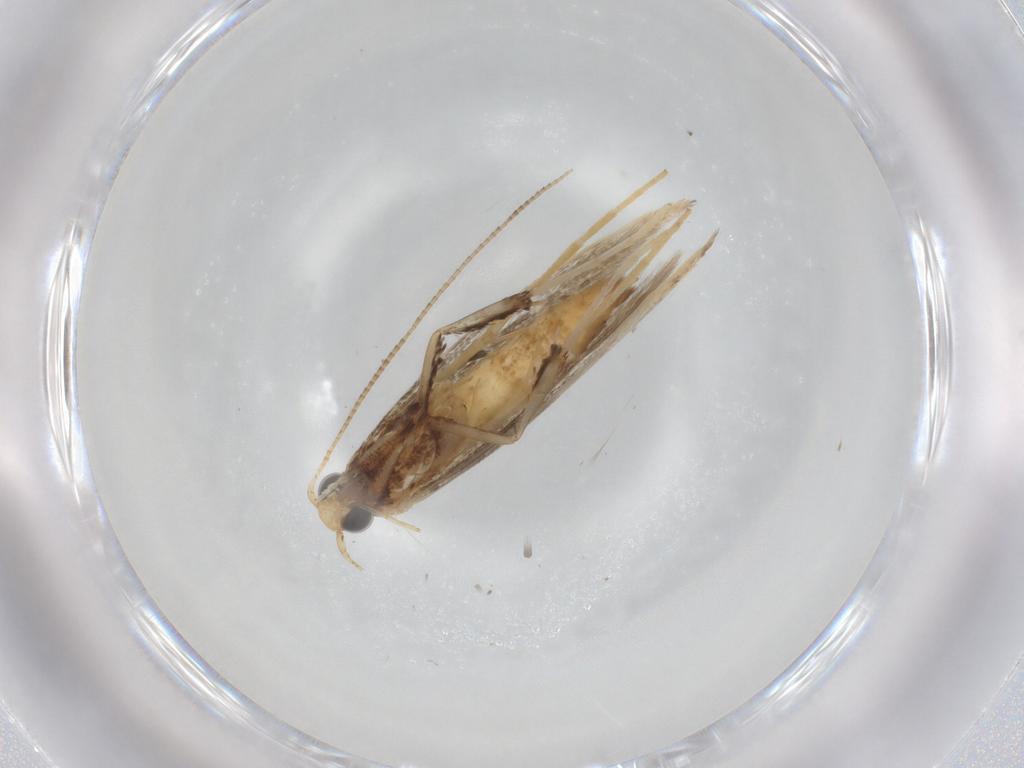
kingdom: Animalia
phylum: Arthropoda
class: Insecta
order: Lepidoptera
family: Gracillariidae
